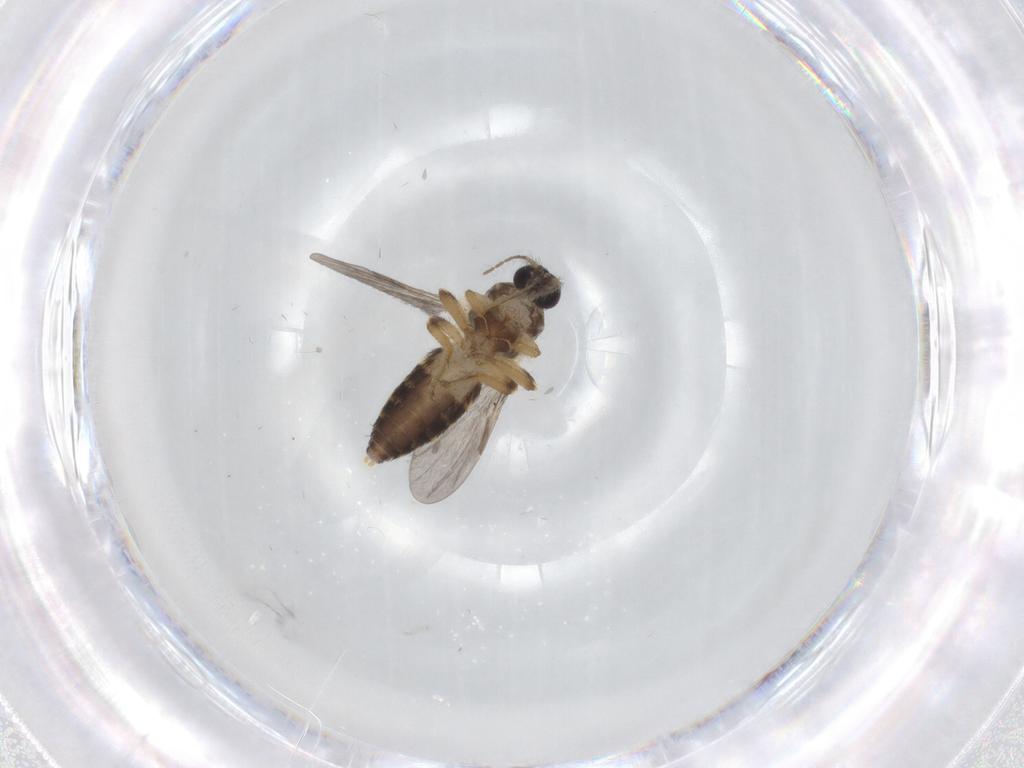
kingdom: Animalia
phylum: Arthropoda
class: Insecta
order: Diptera
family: Ceratopogonidae
